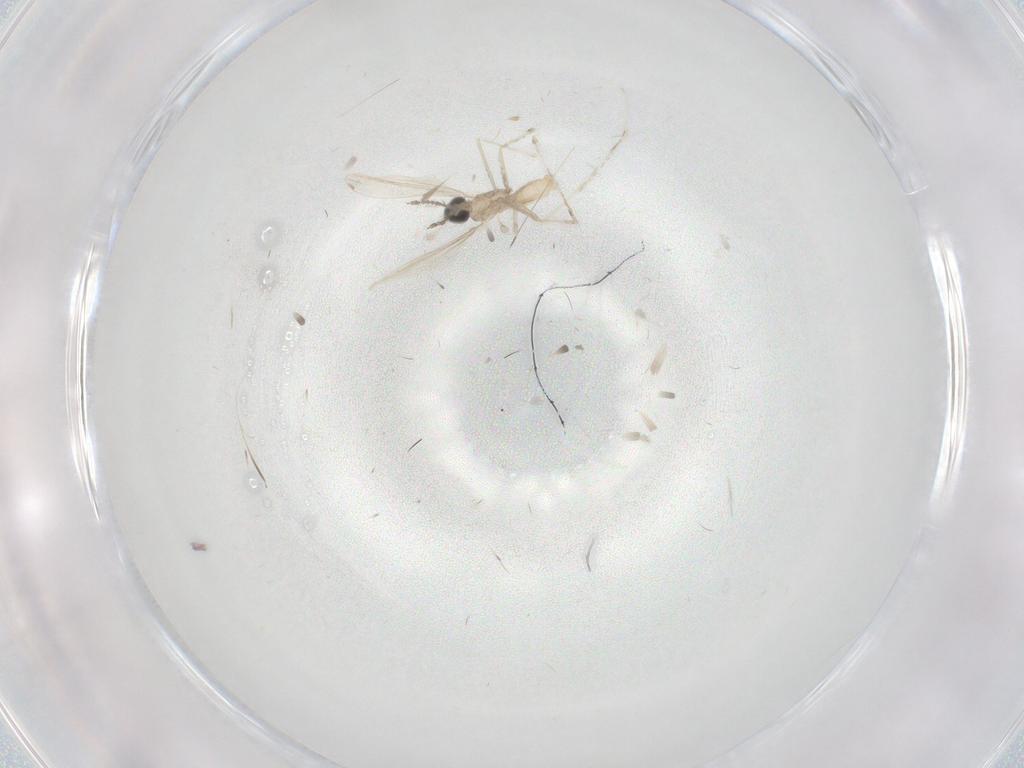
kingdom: Animalia
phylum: Arthropoda
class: Insecta
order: Diptera
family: Cecidomyiidae
